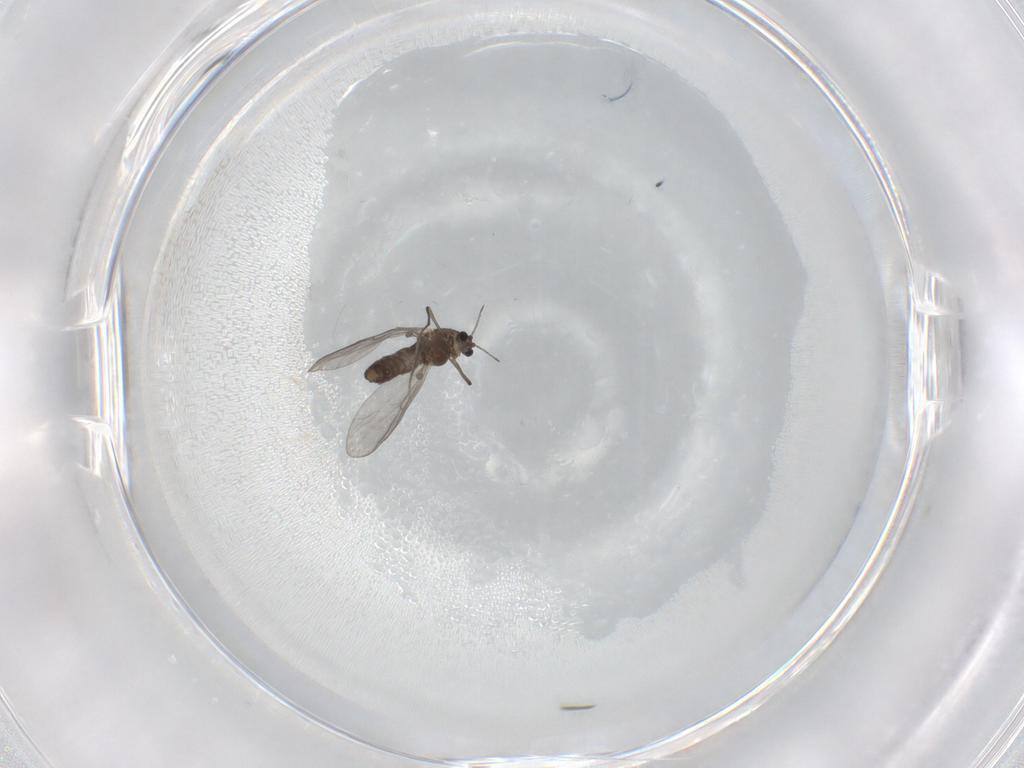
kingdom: Animalia
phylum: Arthropoda
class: Insecta
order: Diptera
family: Chironomidae
